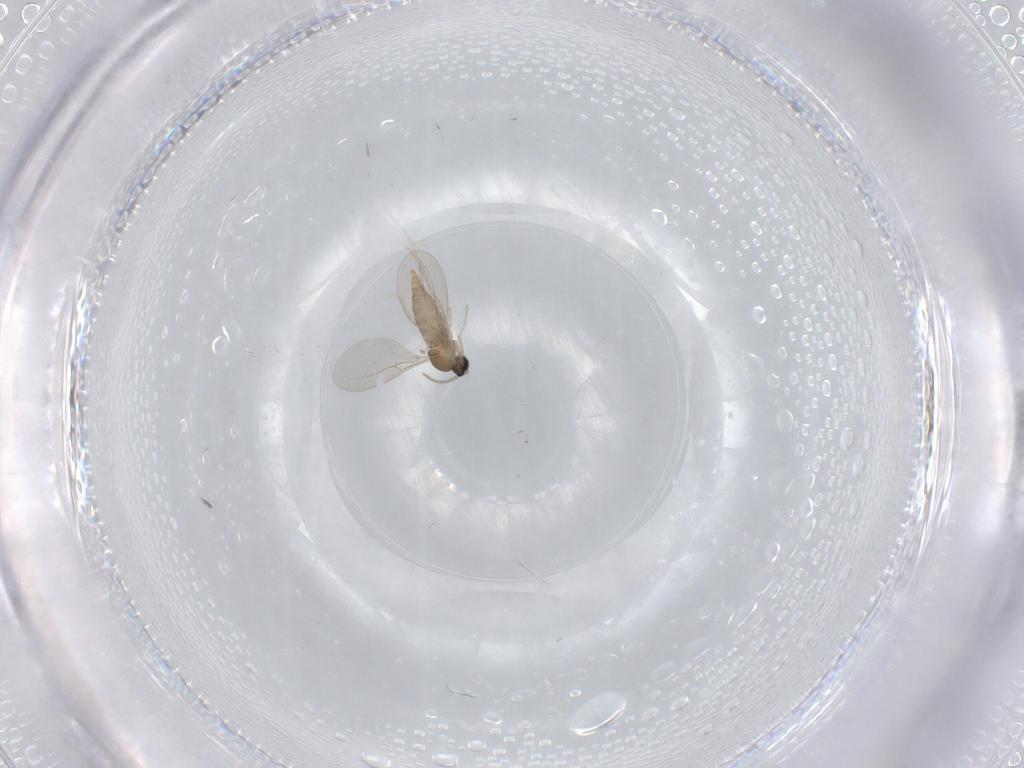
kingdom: Animalia
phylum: Arthropoda
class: Insecta
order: Diptera
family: Cecidomyiidae
